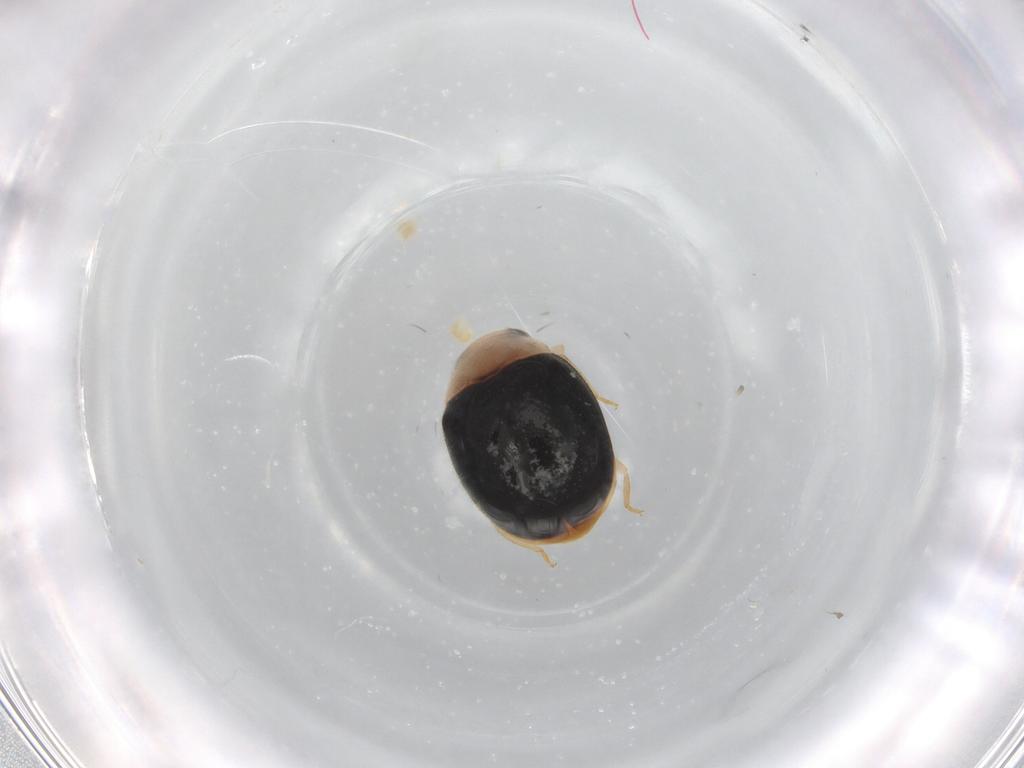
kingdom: Animalia
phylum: Arthropoda
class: Insecta
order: Coleoptera
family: Coccinellidae
